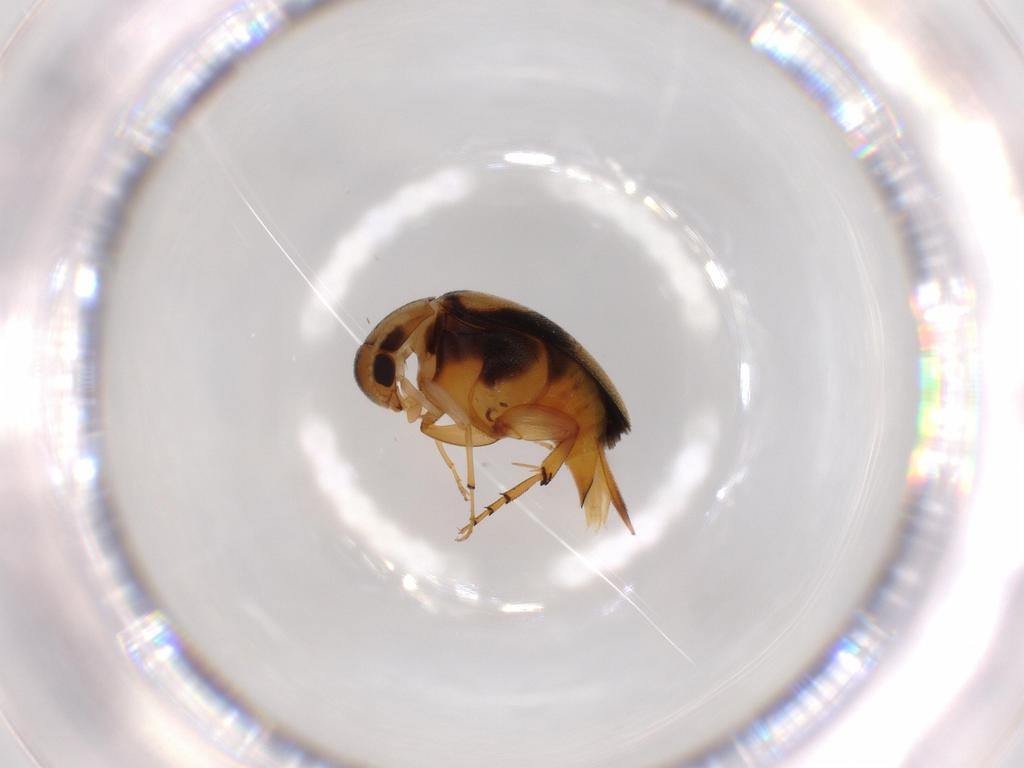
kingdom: Animalia
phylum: Arthropoda
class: Insecta
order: Coleoptera
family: Mordellidae
